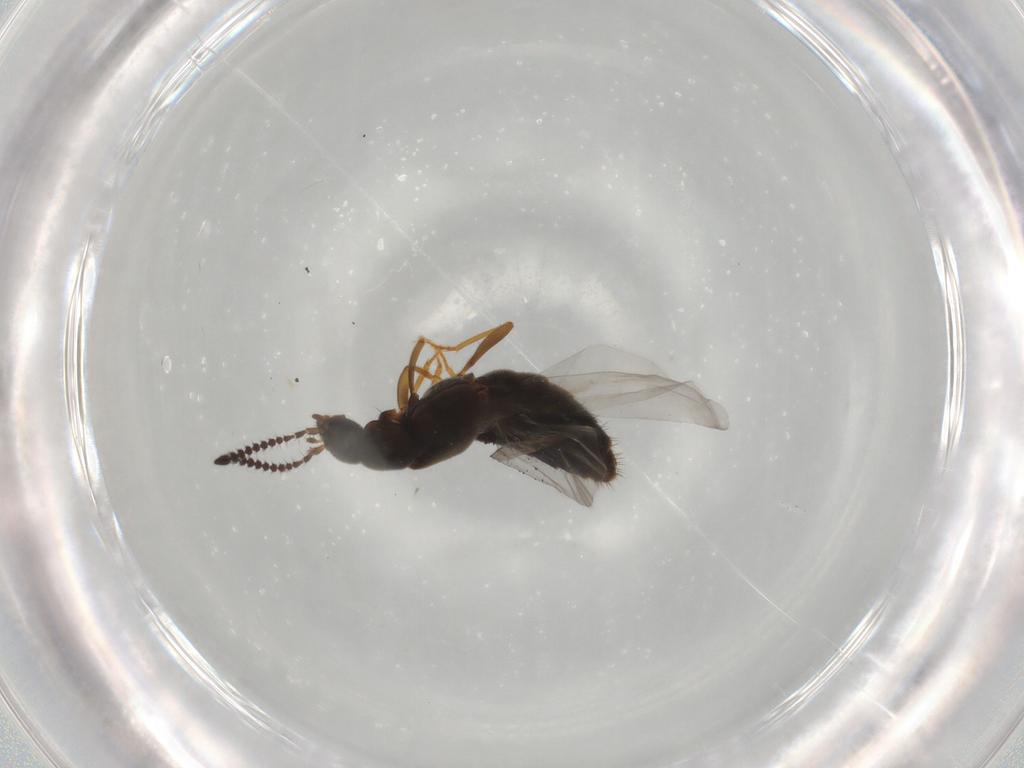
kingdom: Animalia
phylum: Arthropoda
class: Insecta
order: Coleoptera
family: Staphylinidae
